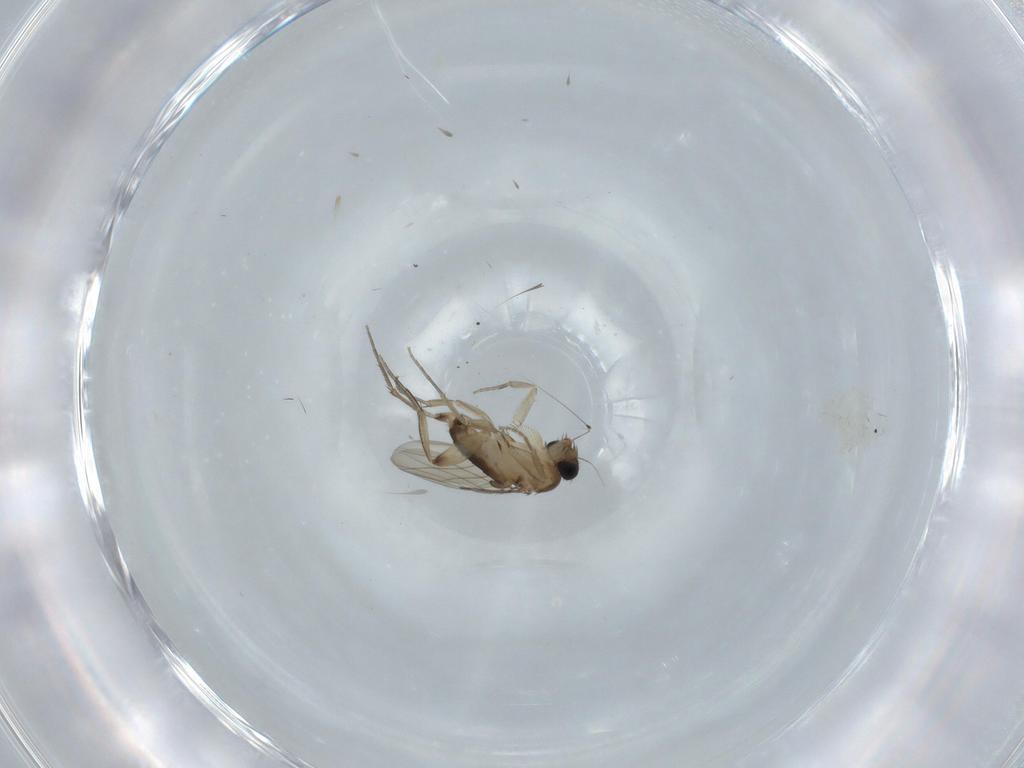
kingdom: Animalia
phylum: Arthropoda
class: Insecta
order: Diptera
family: Phoridae
